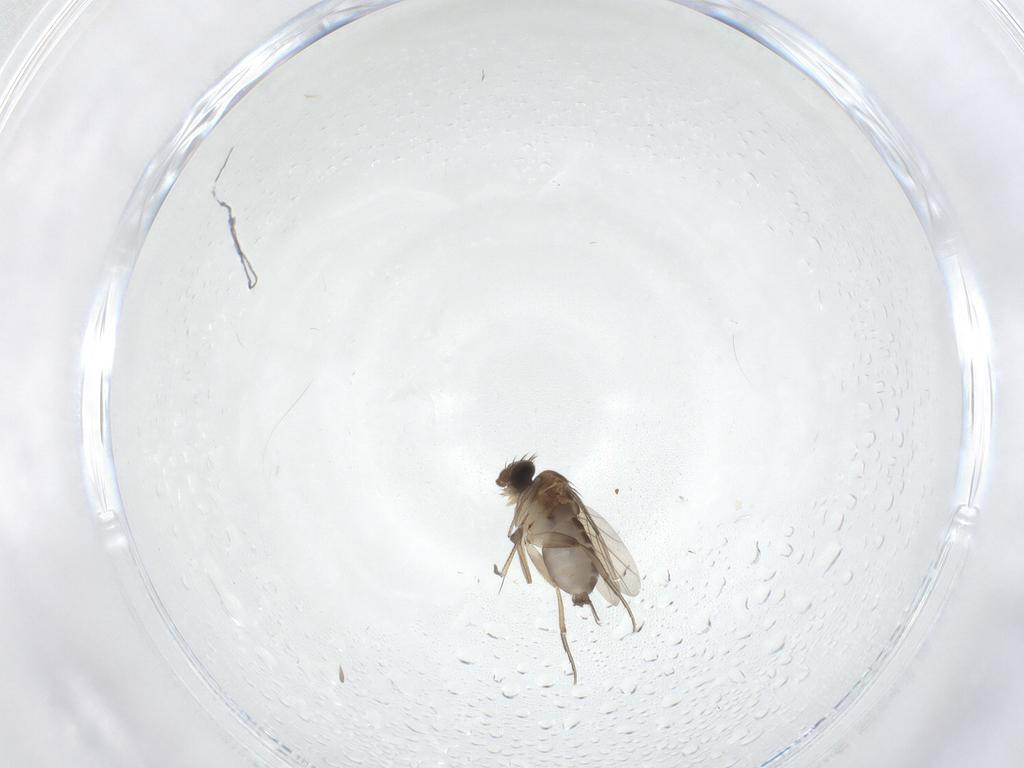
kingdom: Animalia
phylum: Arthropoda
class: Insecta
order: Diptera
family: Phoridae
